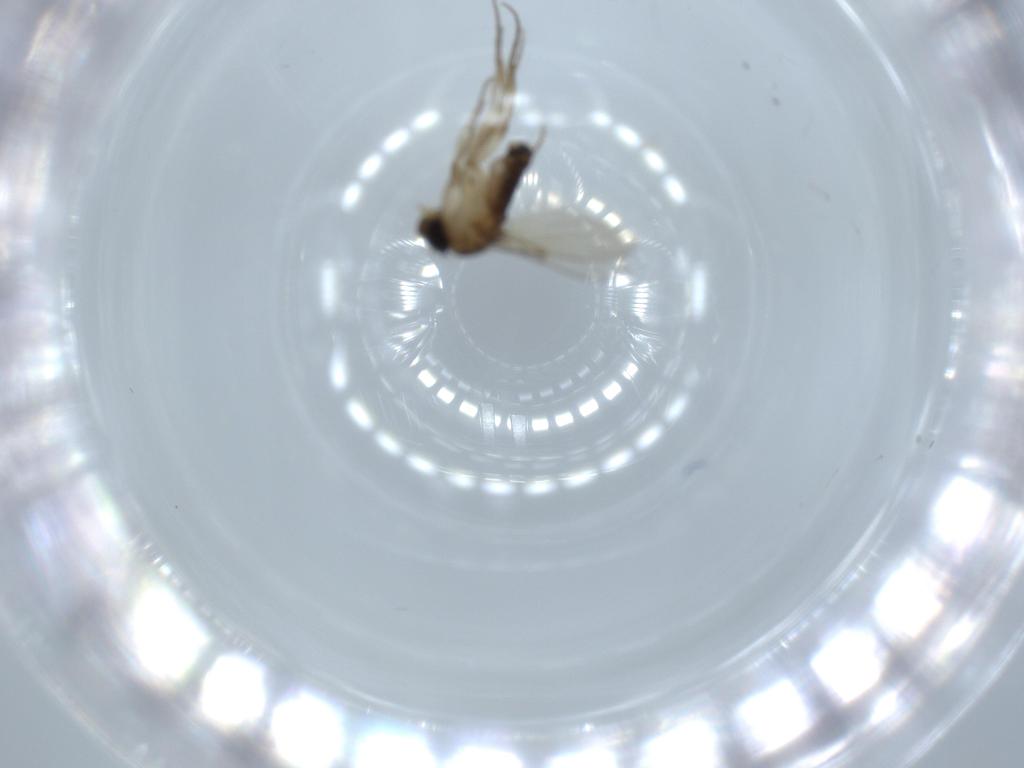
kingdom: Animalia
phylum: Arthropoda
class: Insecta
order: Diptera
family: Phoridae
